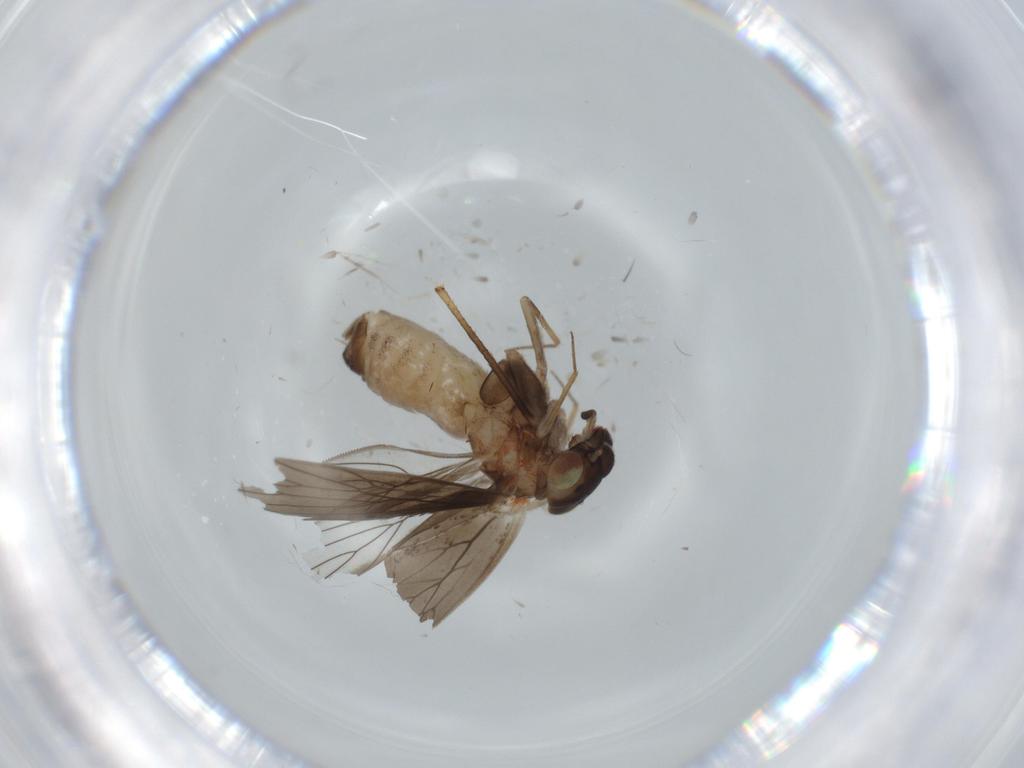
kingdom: Animalia
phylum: Arthropoda
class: Insecta
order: Psocodea
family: Lepidopsocidae
